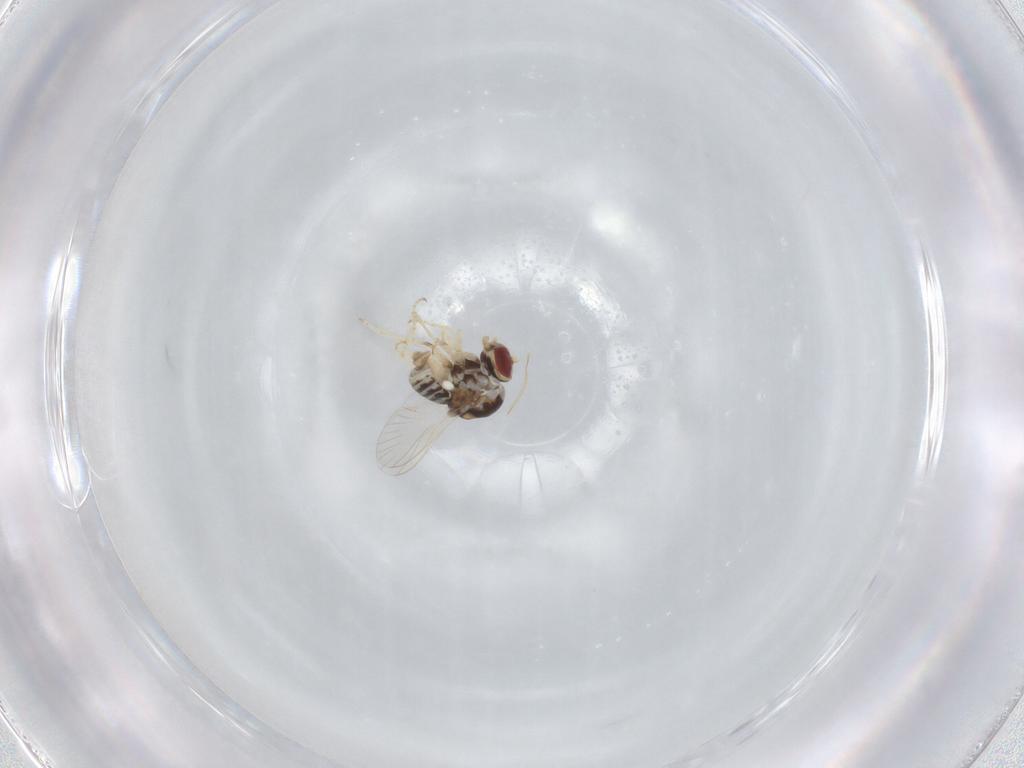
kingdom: Animalia
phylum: Arthropoda
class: Insecta
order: Diptera
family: Bombyliidae
